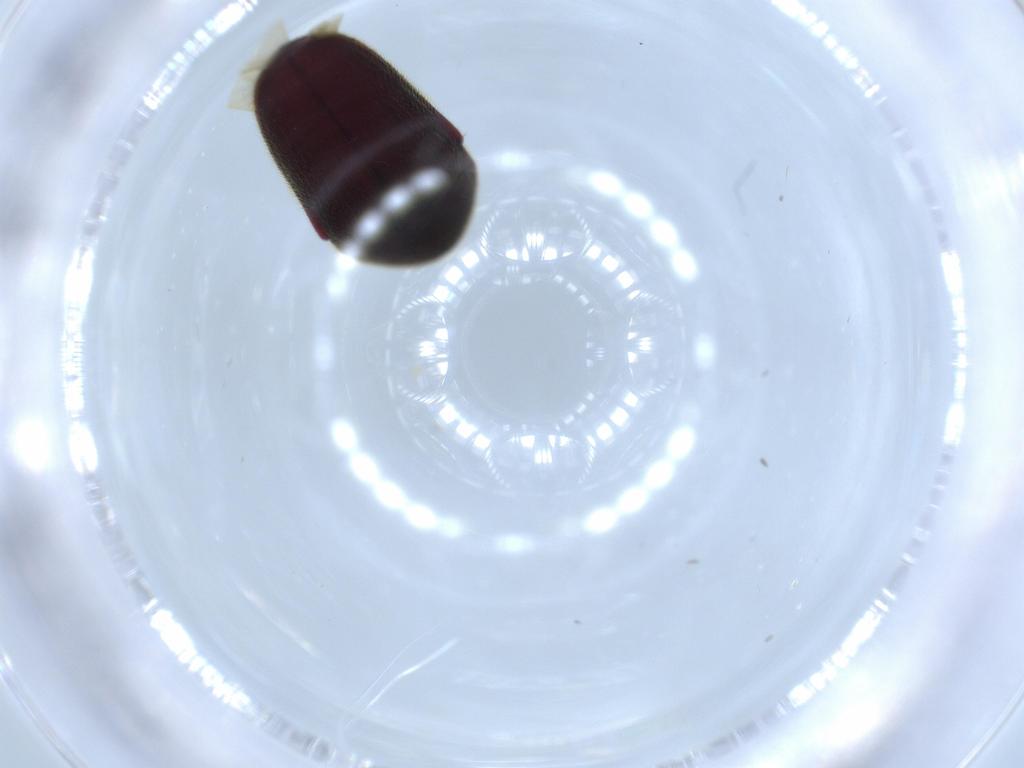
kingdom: Animalia
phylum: Arthropoda
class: Insecta
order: Coleoptera
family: Throscidae
